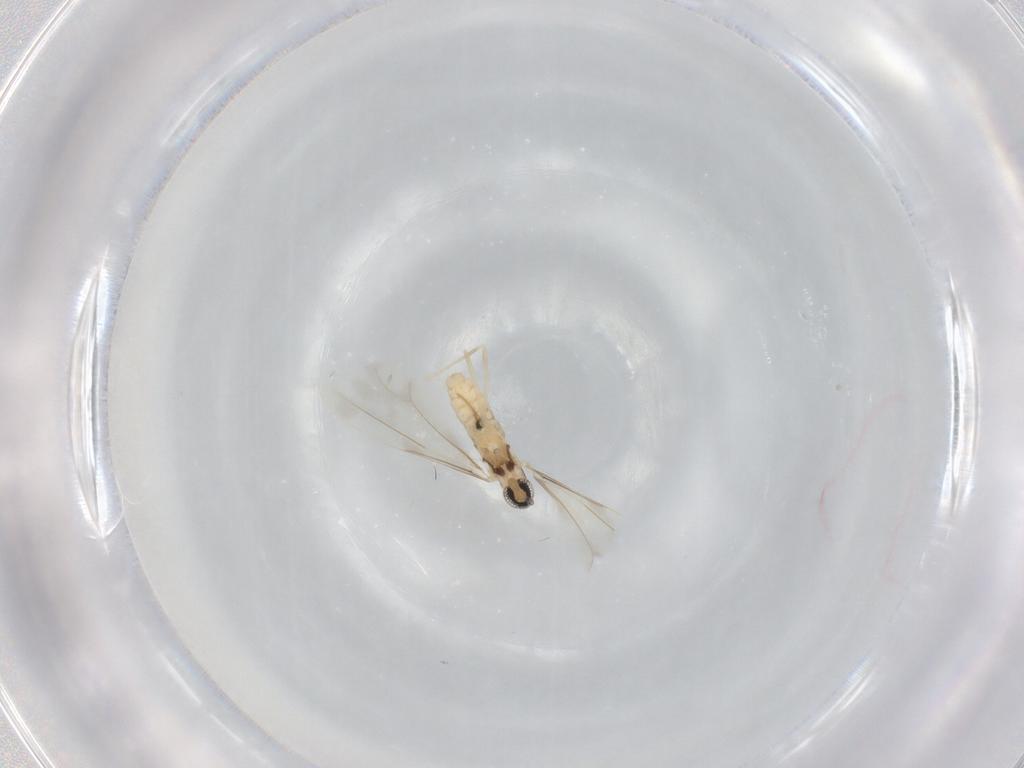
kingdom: Animalia
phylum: Arthropoda
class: Insecta
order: Diptera
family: Cecidomyiidae
